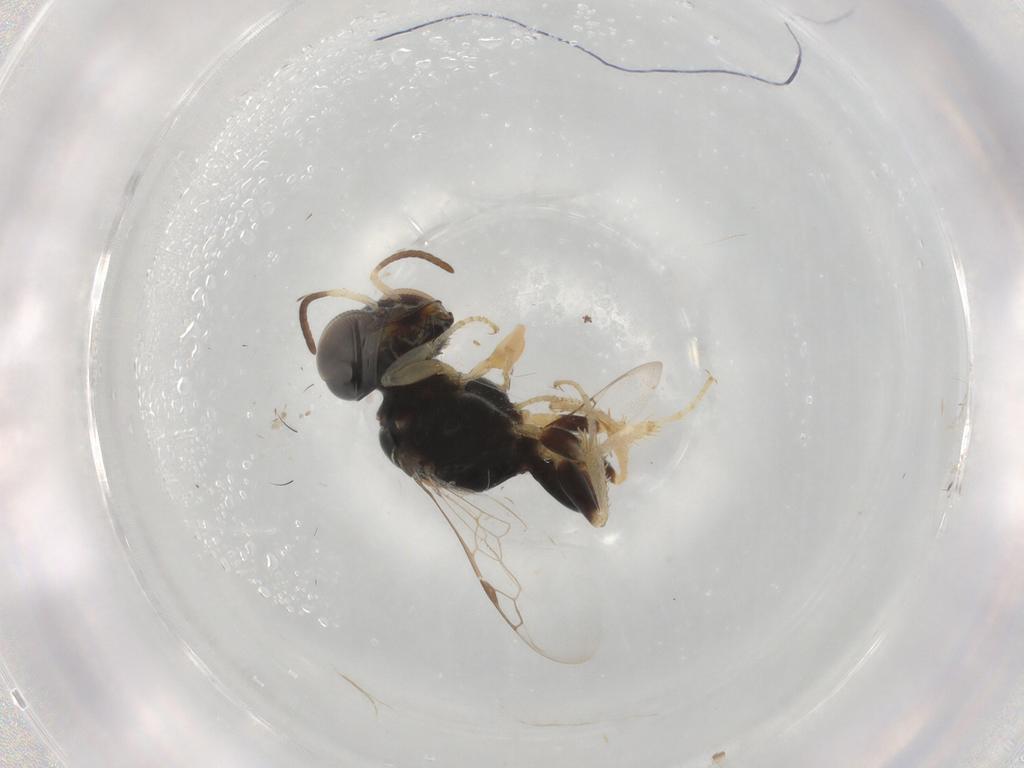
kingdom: Animalia
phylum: Arthropoda
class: Insecta
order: Hymenoptera
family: Crabronidae
